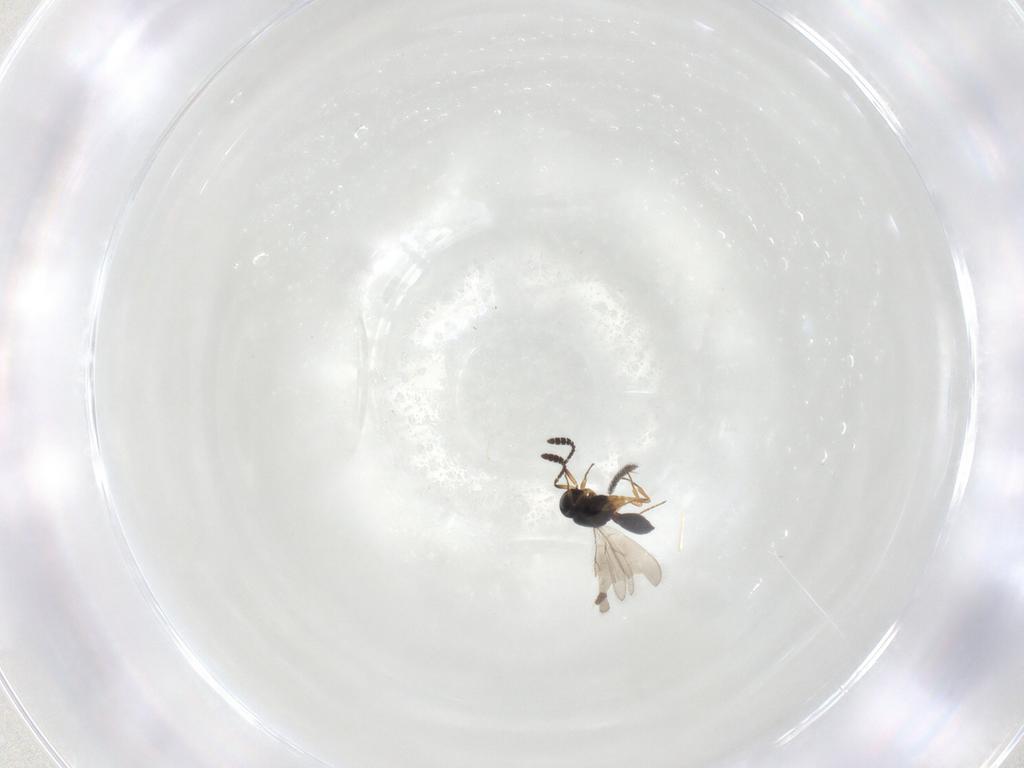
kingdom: Animalia
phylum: Arthropoda
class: Insecta
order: Hymenoptera
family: Scelionidae
